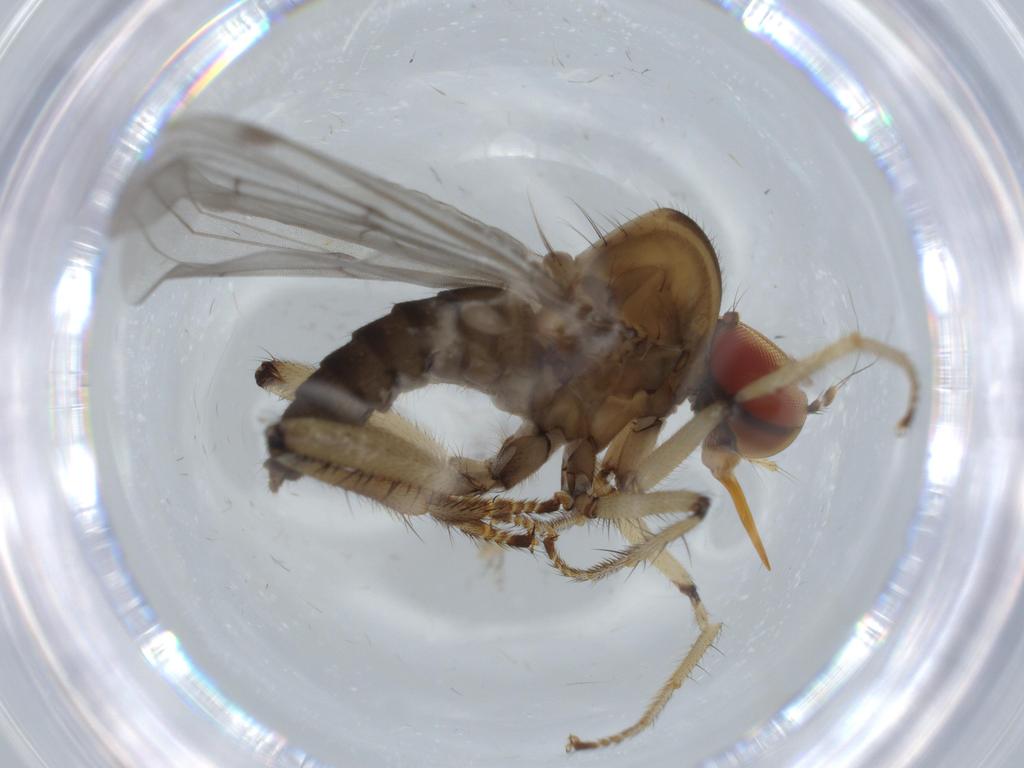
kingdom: Animalia
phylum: Arthropoda
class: Insecta
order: Diptera
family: Hybotidae
